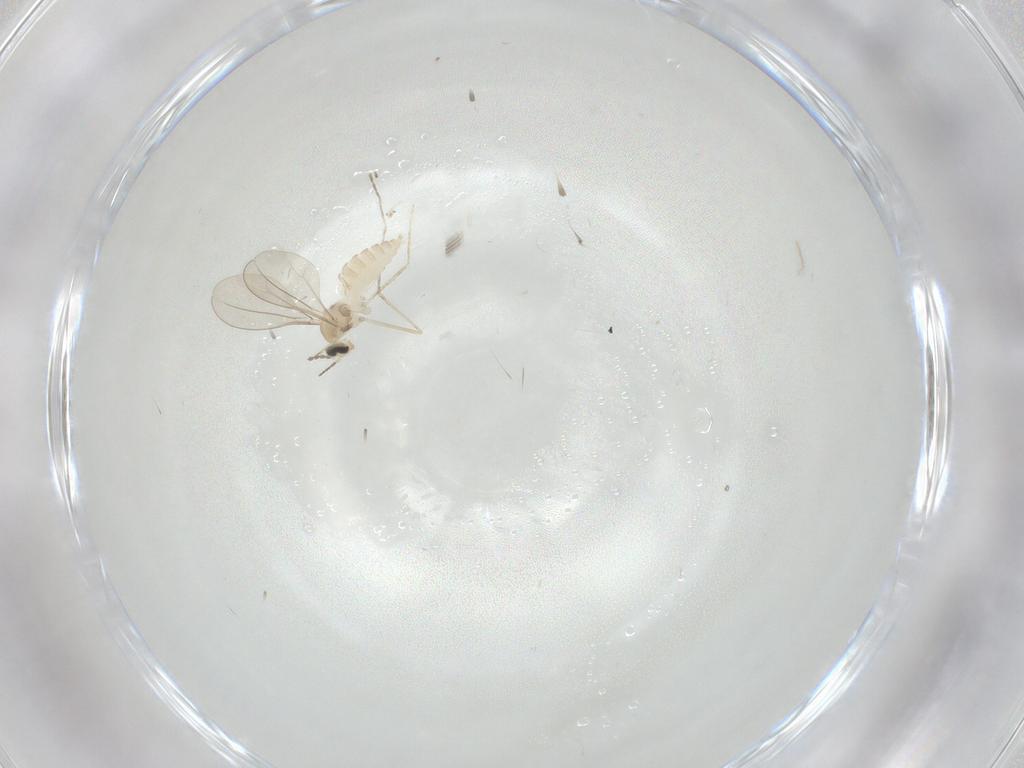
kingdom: Animalia
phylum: Arthropoda
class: Insecta
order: Diptera
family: Cecidomyiidae
